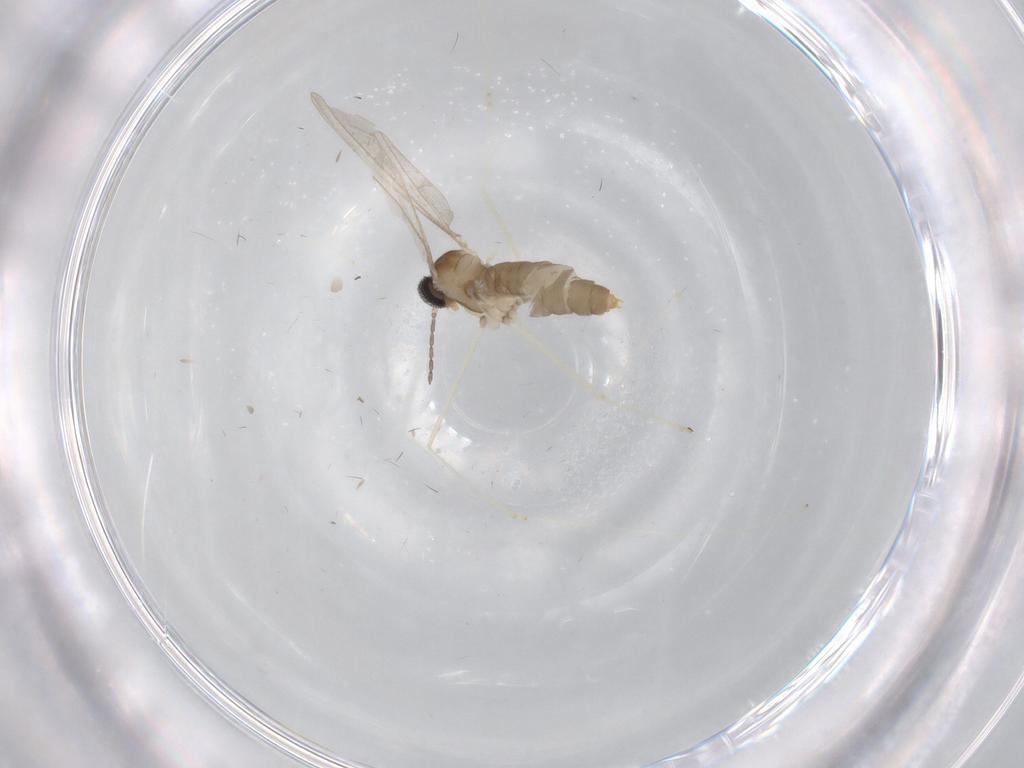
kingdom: Animalia
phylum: Arthropoda
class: Insecta
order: Diptera
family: Cecidomyiidae
